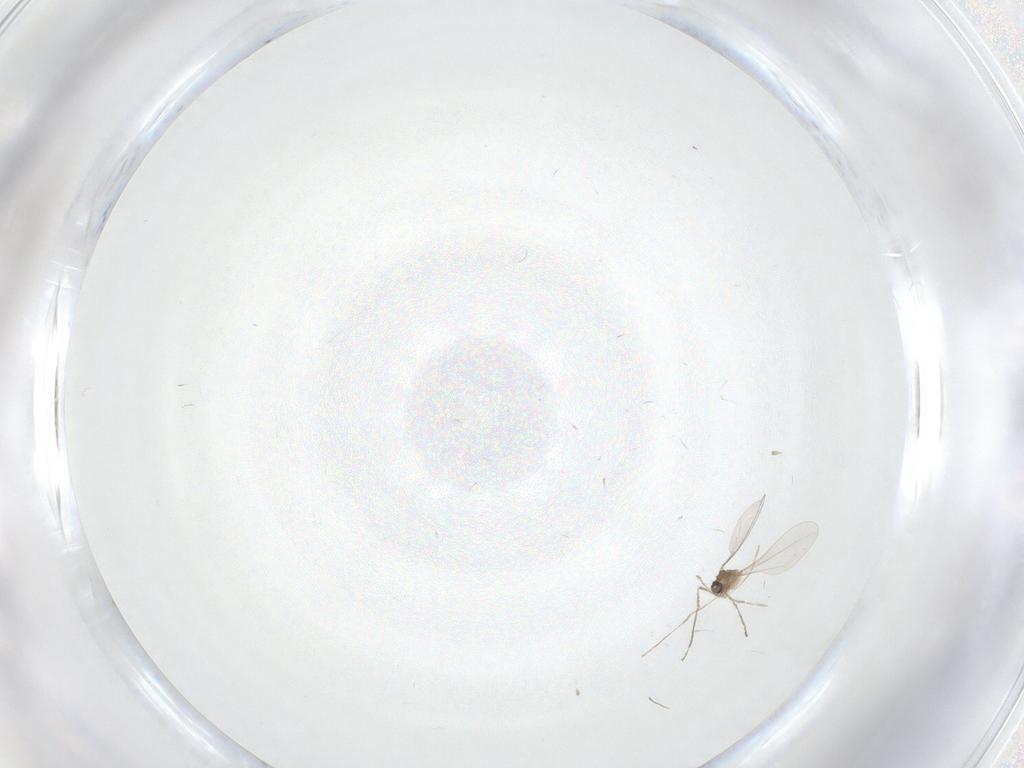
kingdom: Animalia
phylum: Arthropoda
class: Insecta
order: Diptera
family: Cecidomyiidae
